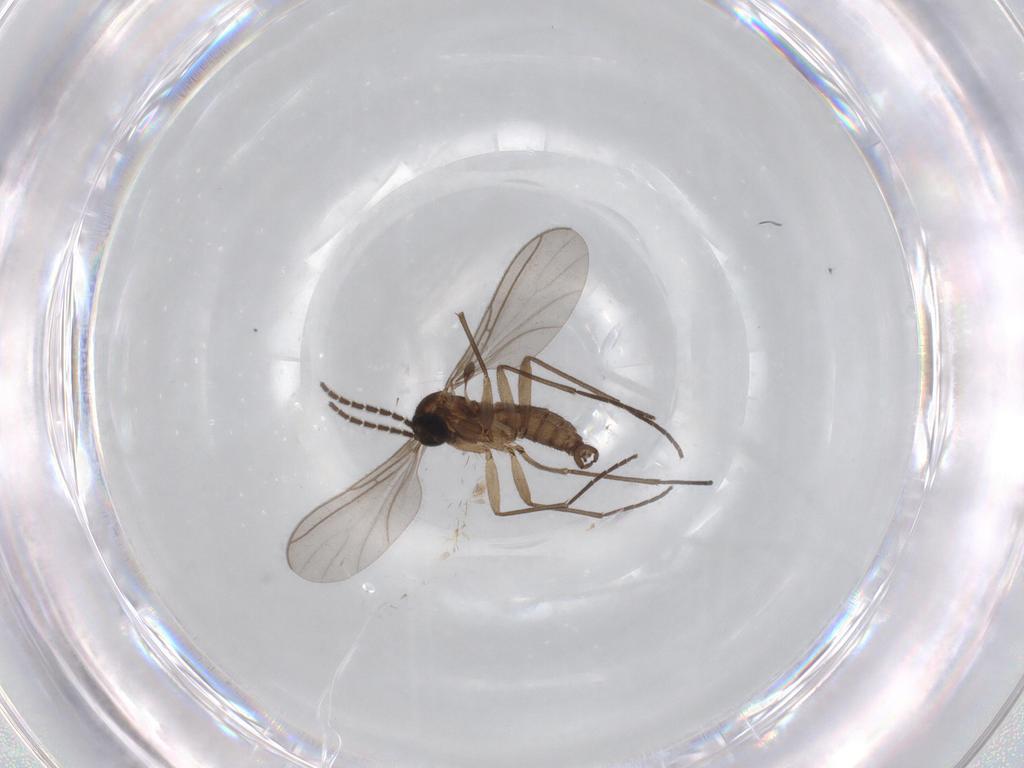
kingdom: Animalia
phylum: Arthropoda
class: Insecta
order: Diptera
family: Sciaridae
